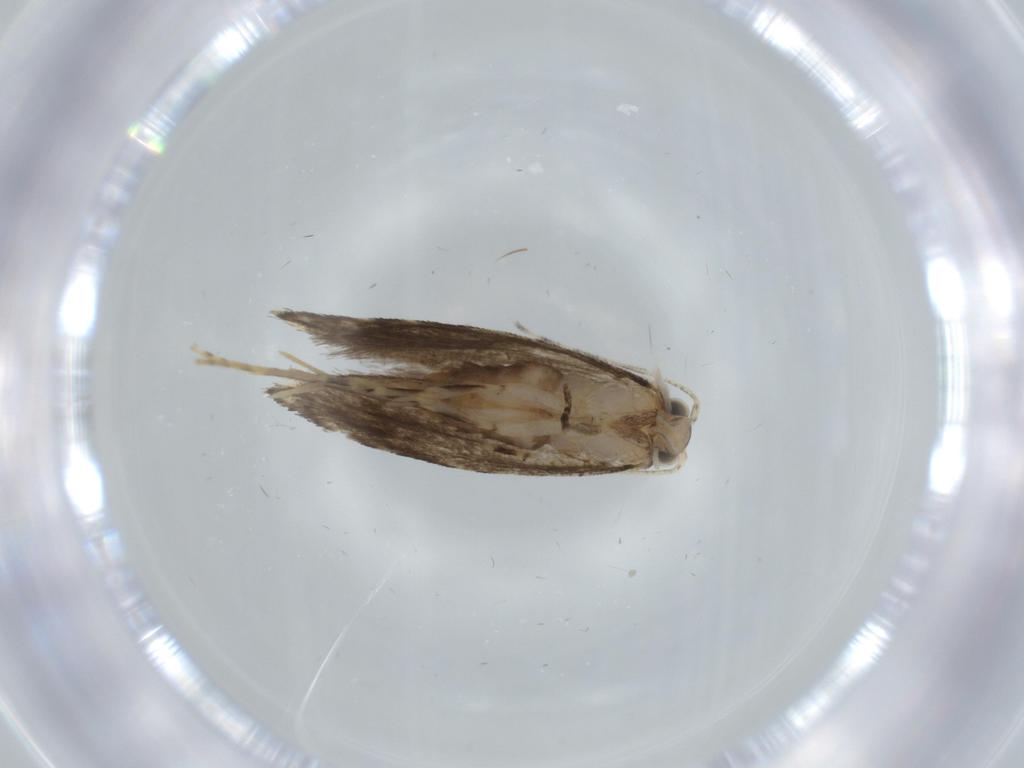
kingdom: Animalia
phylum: Arthropoda
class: Insecta
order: Lepidoptera
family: Tineidae
